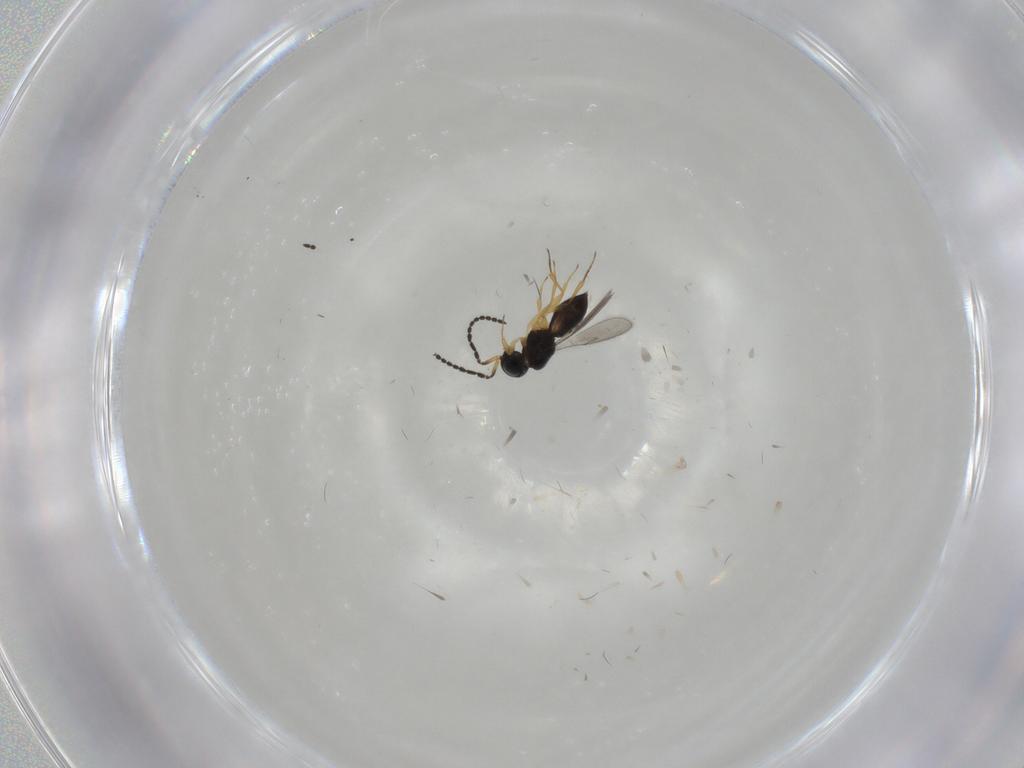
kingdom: Animalia
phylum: Arthropoda
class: Insecta
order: Hymenoptera
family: Scelionidae
